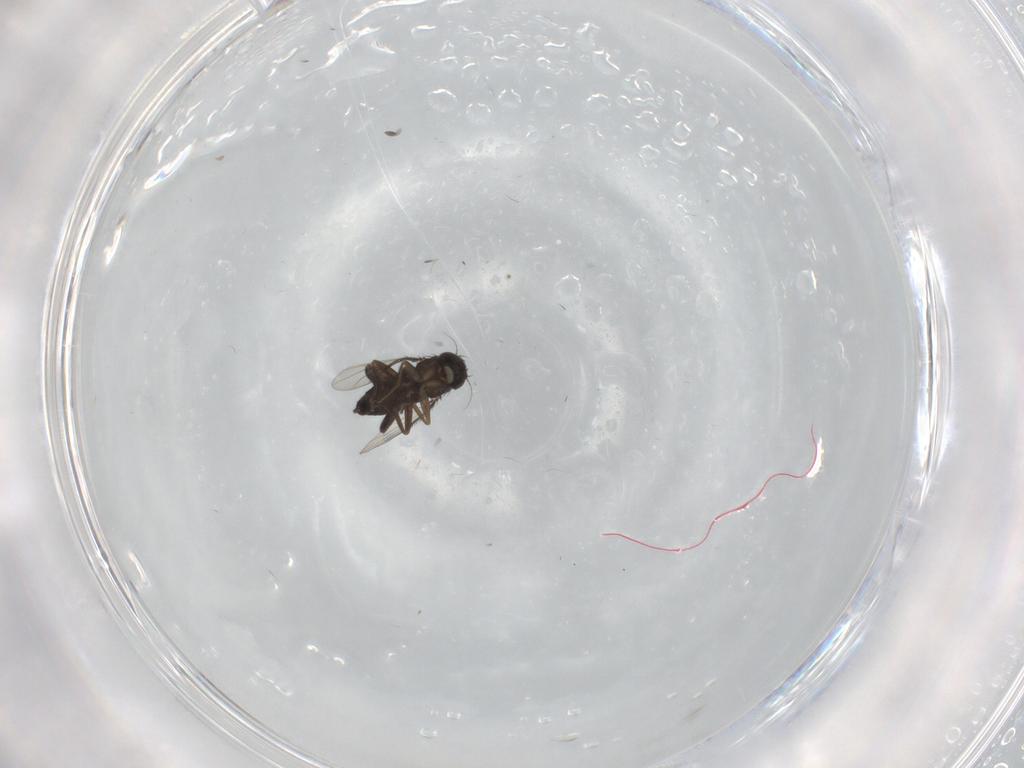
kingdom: Animalia
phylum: Arthropoda
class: Insecta
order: Diptera
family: Phoridae
